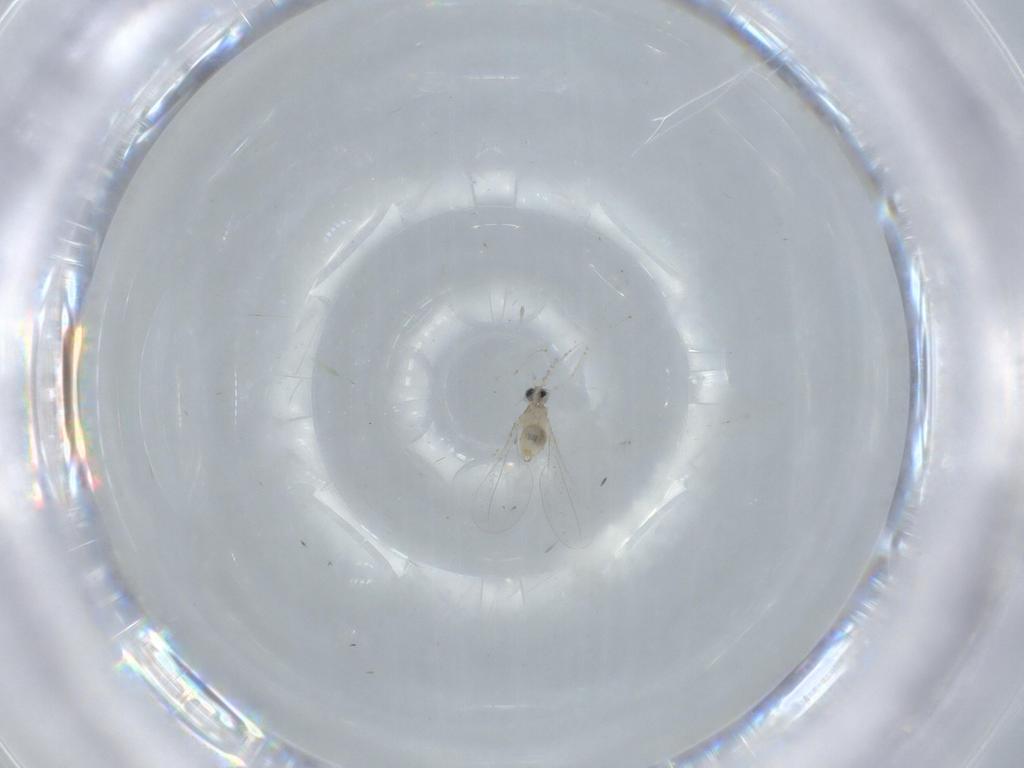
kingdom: Animalia
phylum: Arthropoda
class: Insecta
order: Diptera
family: Cecidomyiidae
